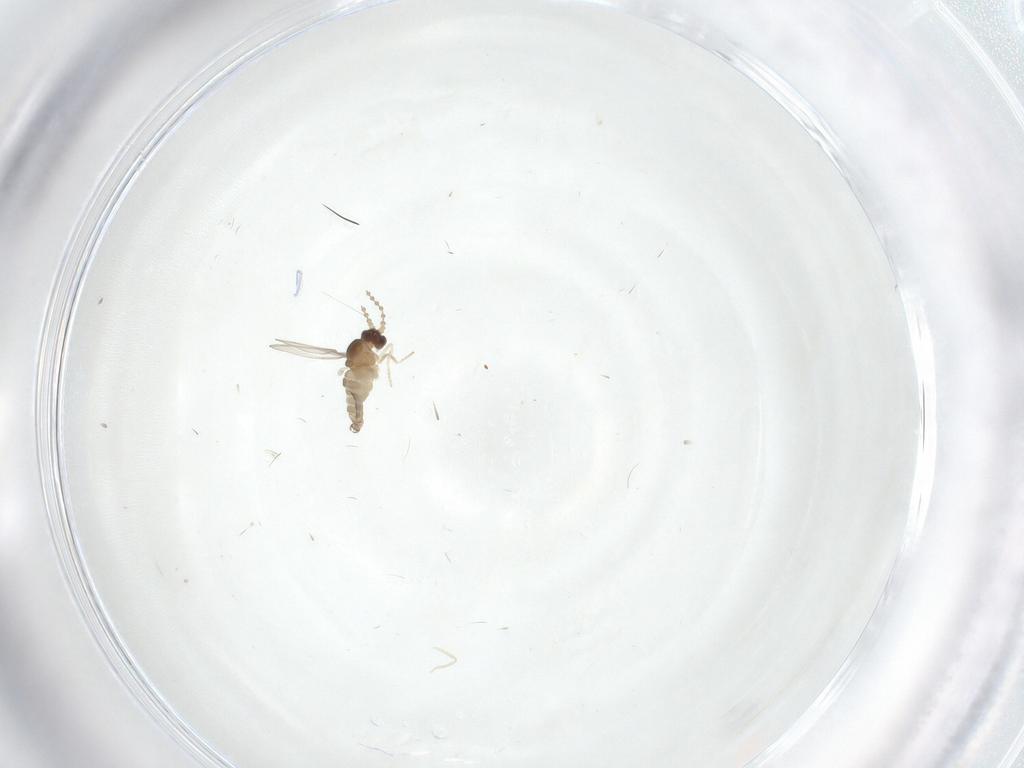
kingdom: Animalia
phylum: Arthropoda
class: Insecta
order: Diptera
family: Cecidomyiidae
